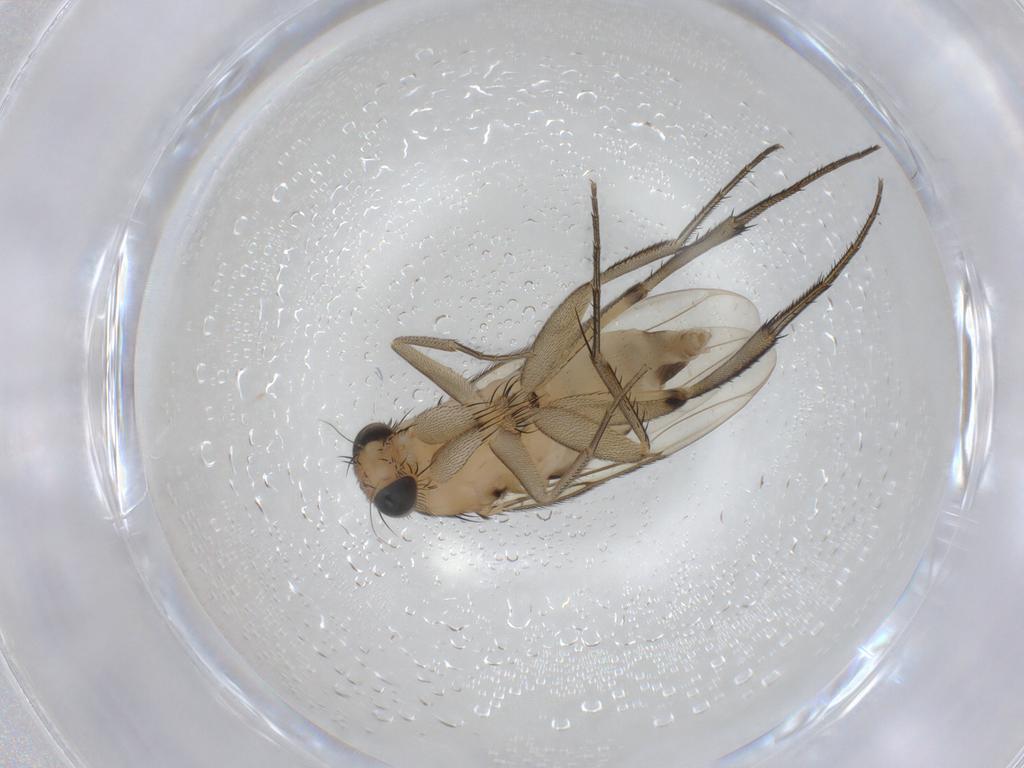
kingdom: Animalia
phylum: Arthropoda
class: Insecta
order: Diptera
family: Phoridae
